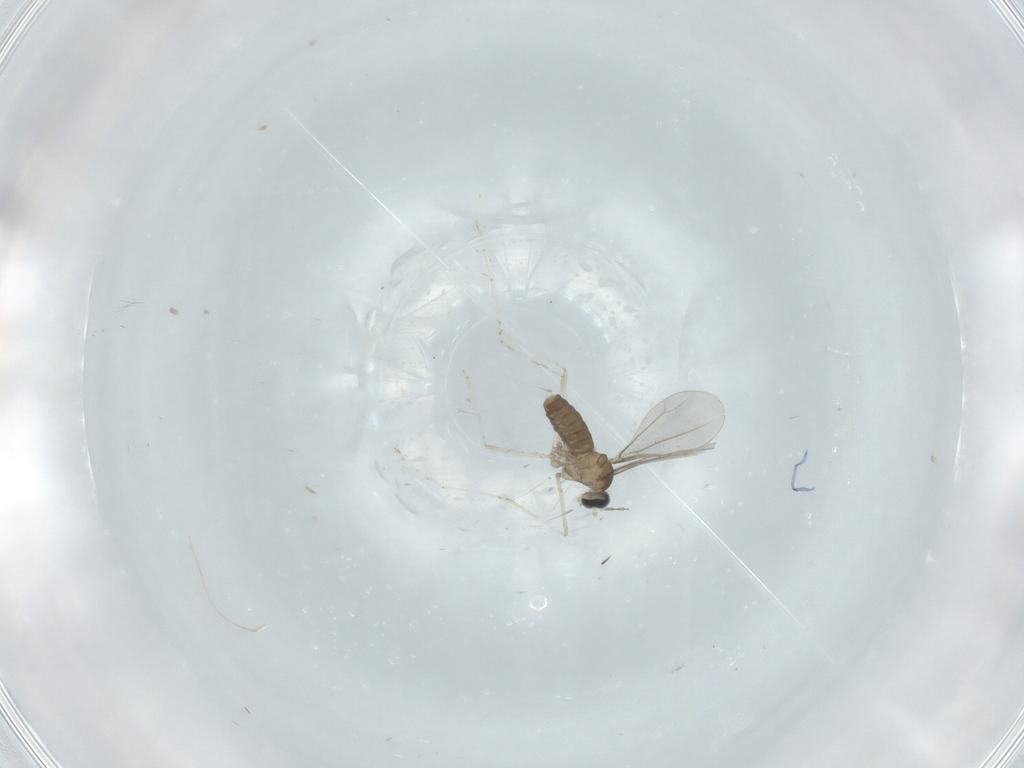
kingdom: Animalia
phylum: Arthropoda
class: Insecta
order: Diptera
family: Cecidomyiidae
